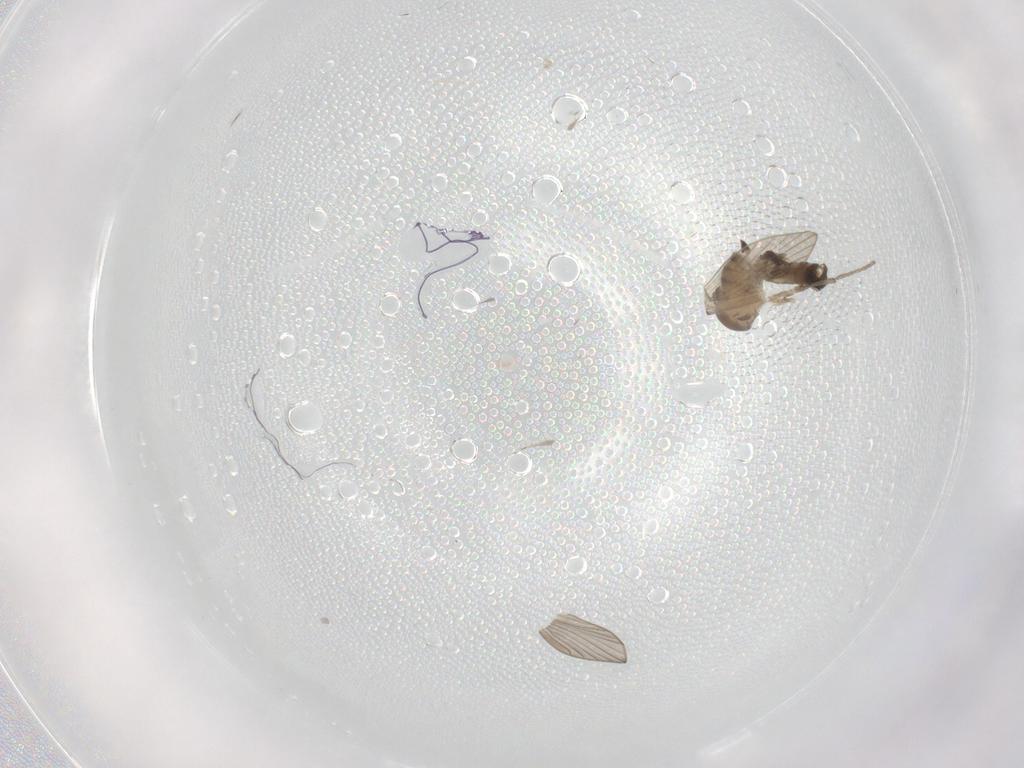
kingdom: Animalia
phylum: Arthropoda
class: Insecta
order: Diptera
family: Psychodidae
